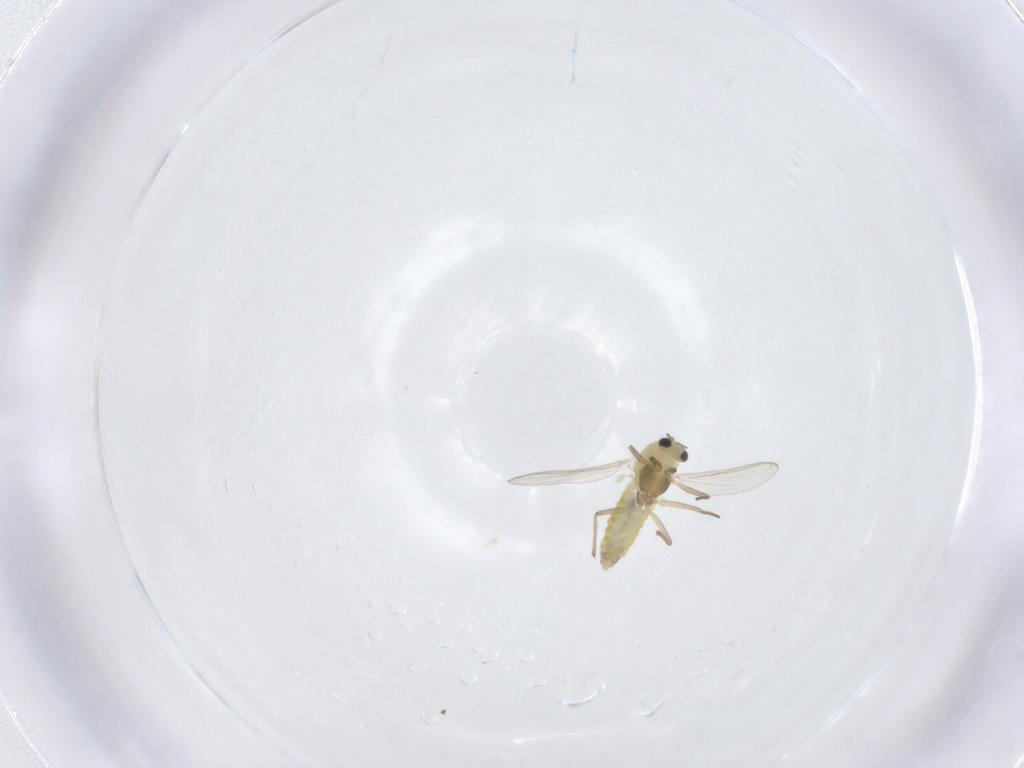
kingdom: Animalia
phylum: Arthropoda
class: Insecta
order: Diptera
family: Chironomidae
